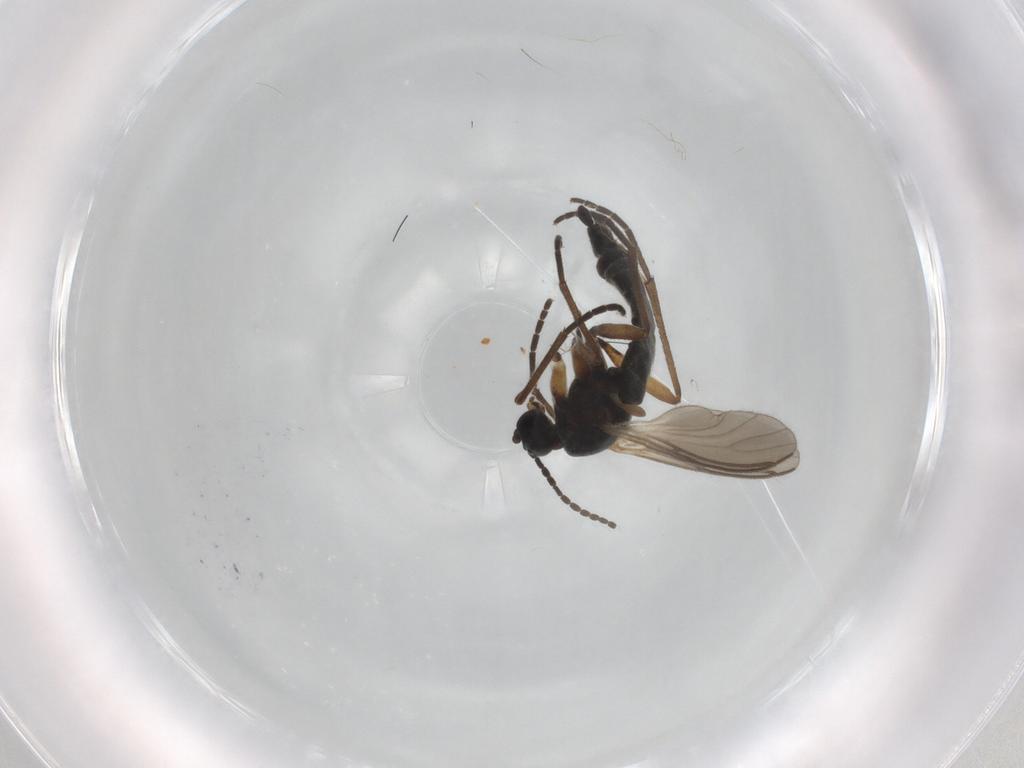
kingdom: Animalia
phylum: Arthropoda
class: Insecta
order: Diptera
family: Sciaridae
